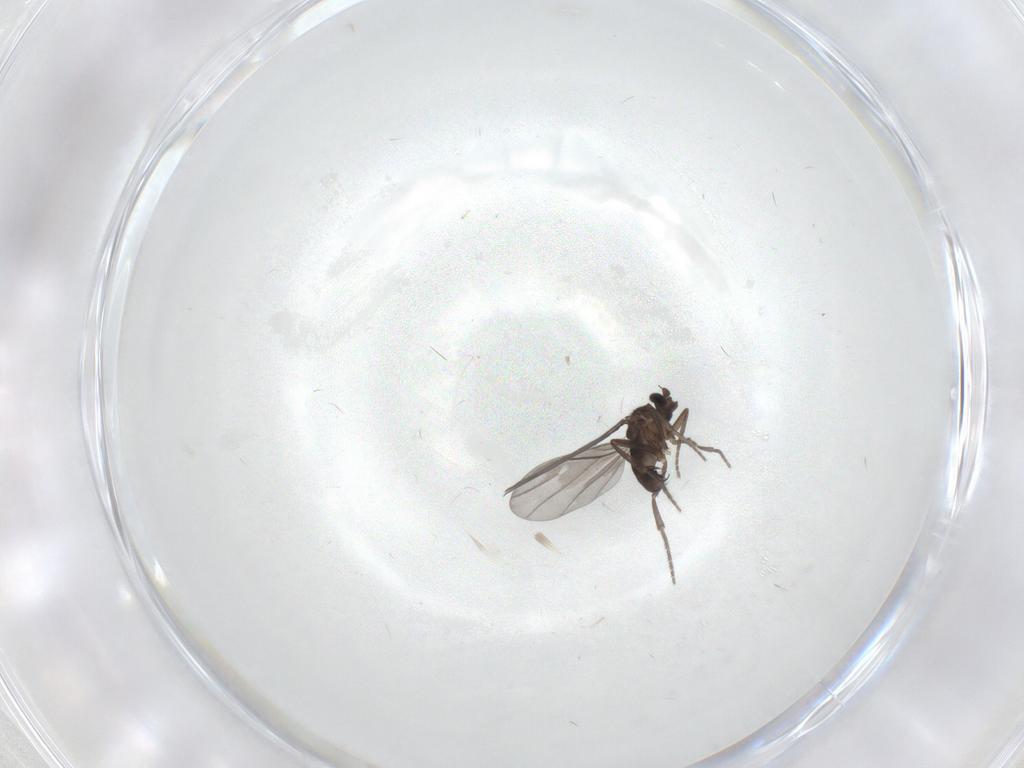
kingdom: Animalia
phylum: Arthropoda
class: Insecta
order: Diptera
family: Phoridae
